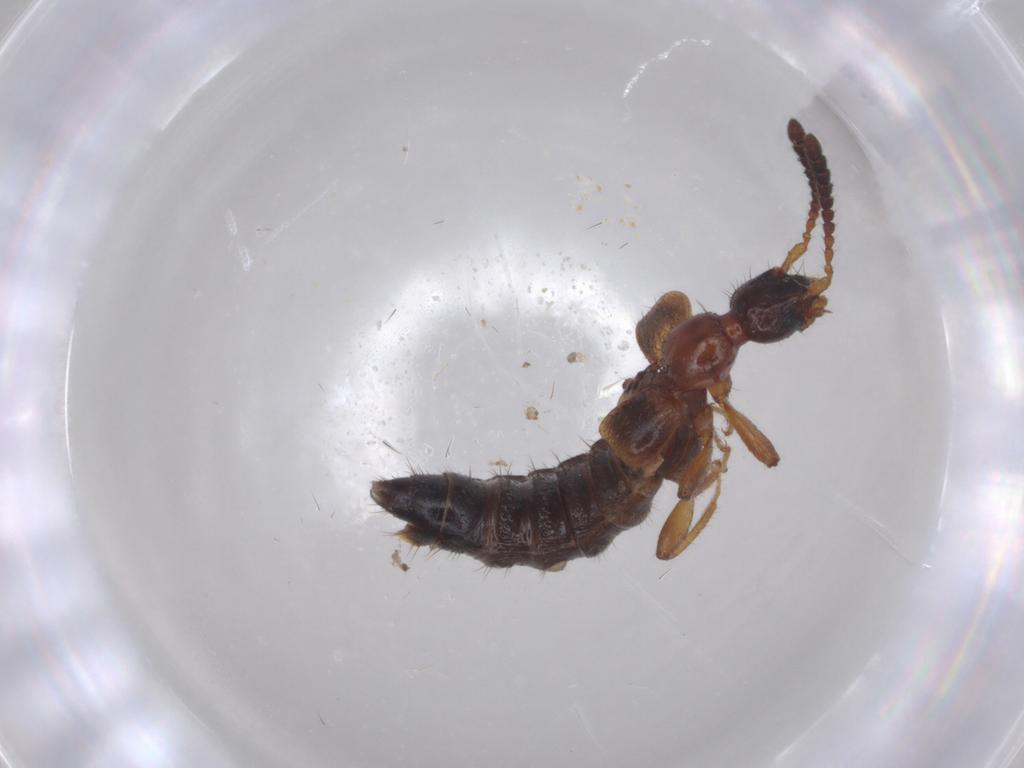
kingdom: Animalia
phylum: Arthropoda
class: Insecta
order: Coleoptera
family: Staphylinidae
